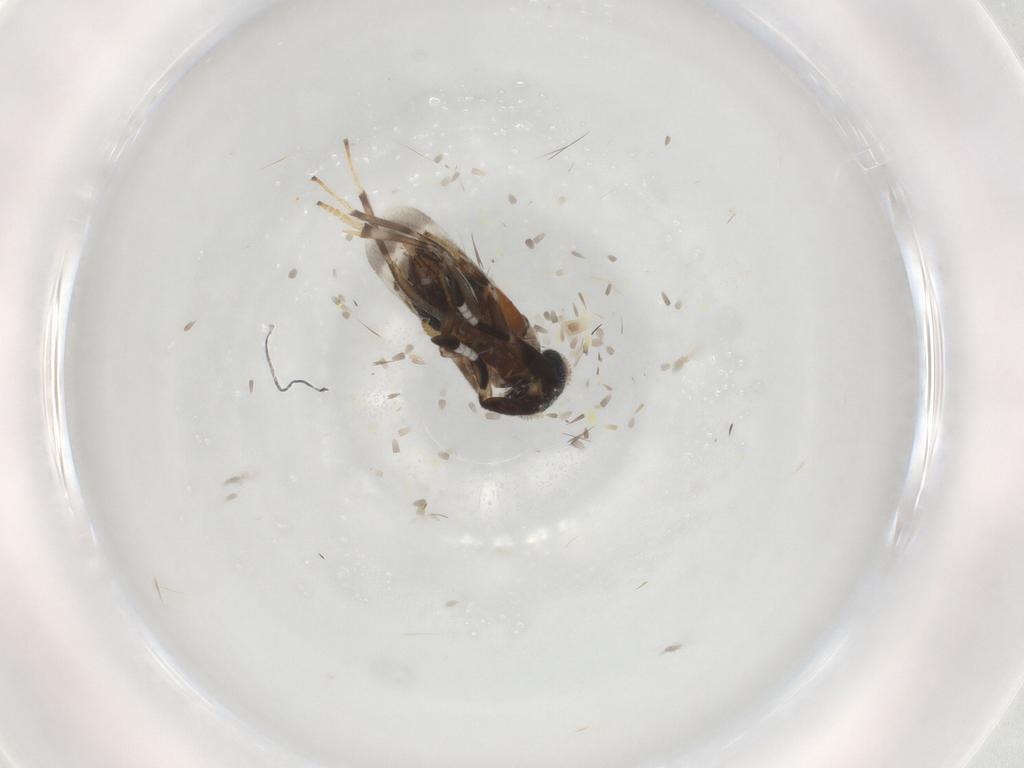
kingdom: Animalia
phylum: Arthropoda
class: Insecta
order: Hymenoptera
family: Encyrtidae
